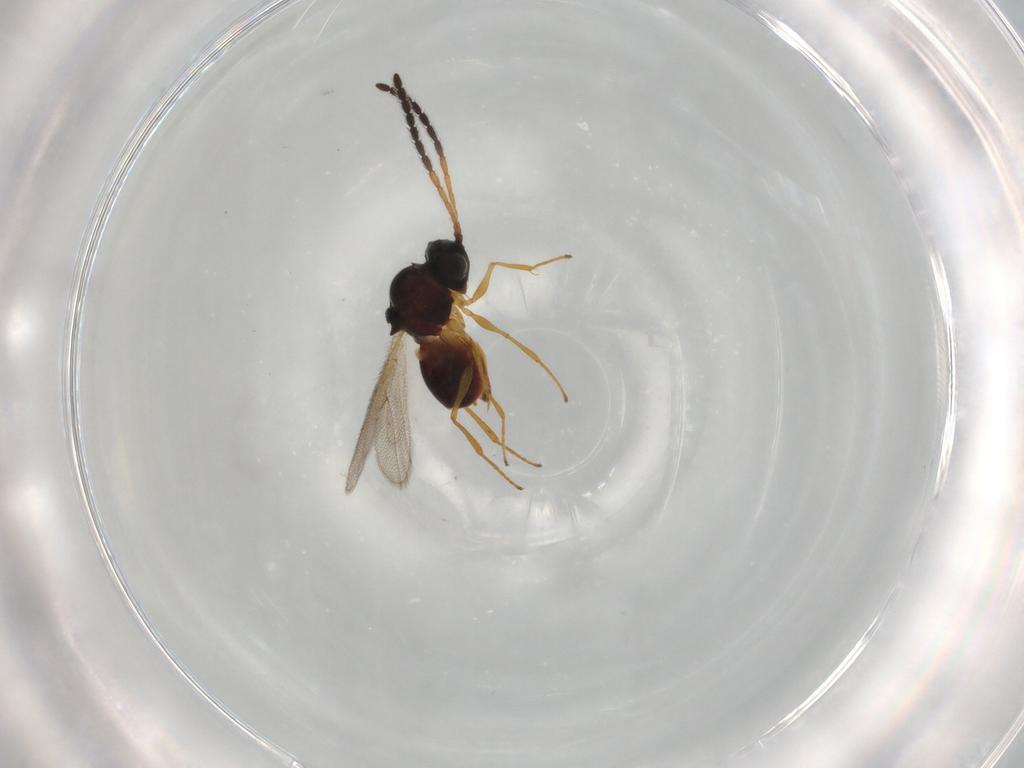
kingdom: Animalia
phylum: Arthropoda
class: Insecta
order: Hymenoptera
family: Figitidae
